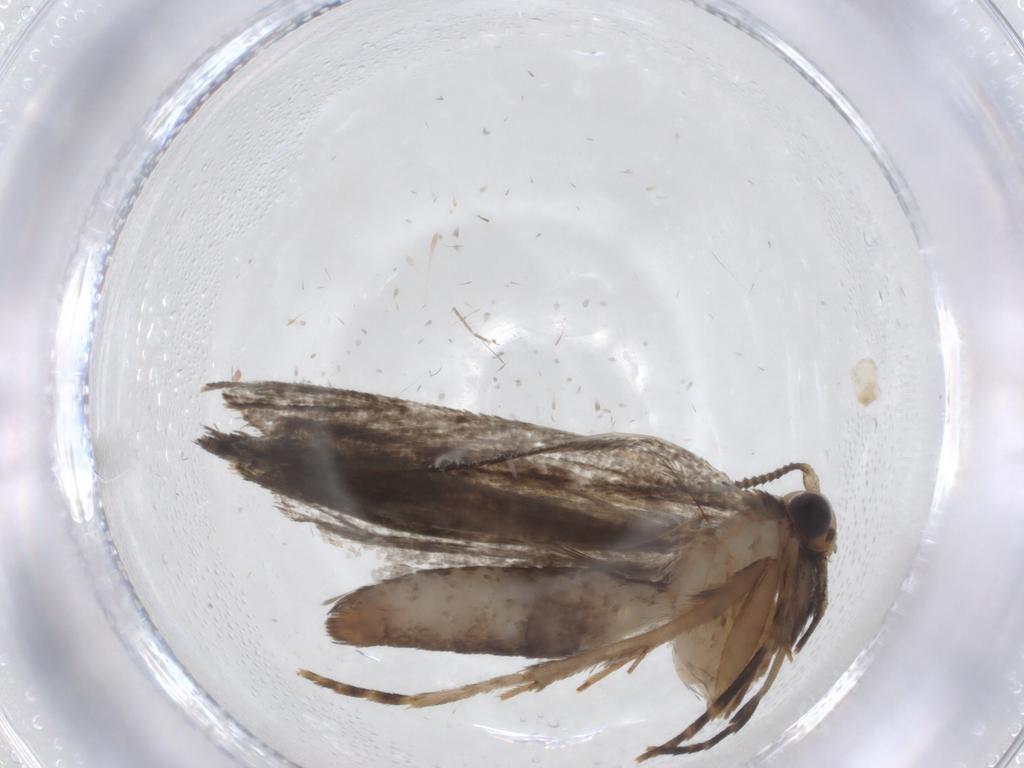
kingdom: Animalia
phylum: Arthropoda
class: Insecta
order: Lepidoptera
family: Tineidae
